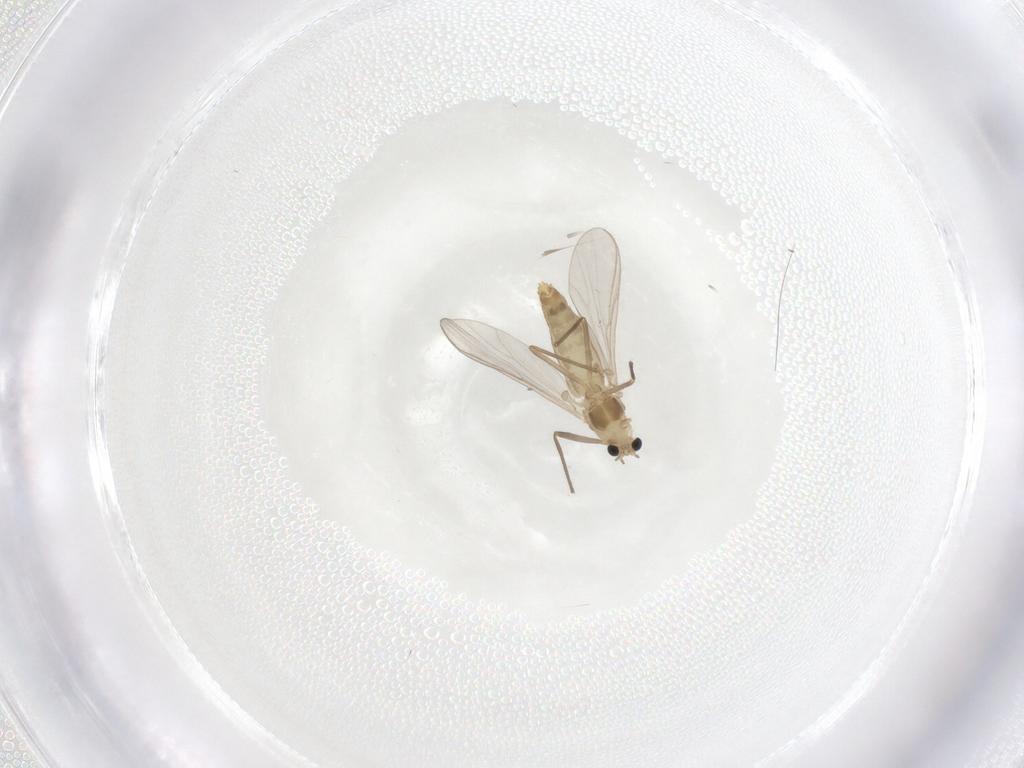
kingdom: Animalia
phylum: Arthropoda
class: Insecta
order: Diptera
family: Chironomidae
